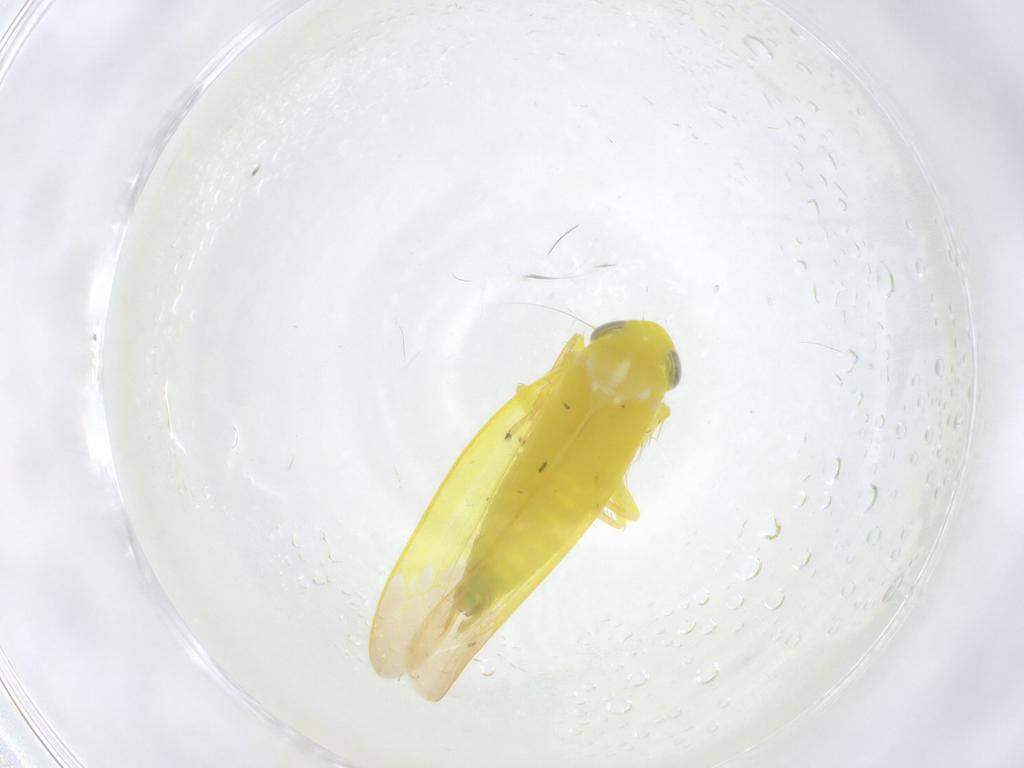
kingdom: Animalia
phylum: Arthropoda
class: Insecta
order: Hemiptera
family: Cicadellidae
